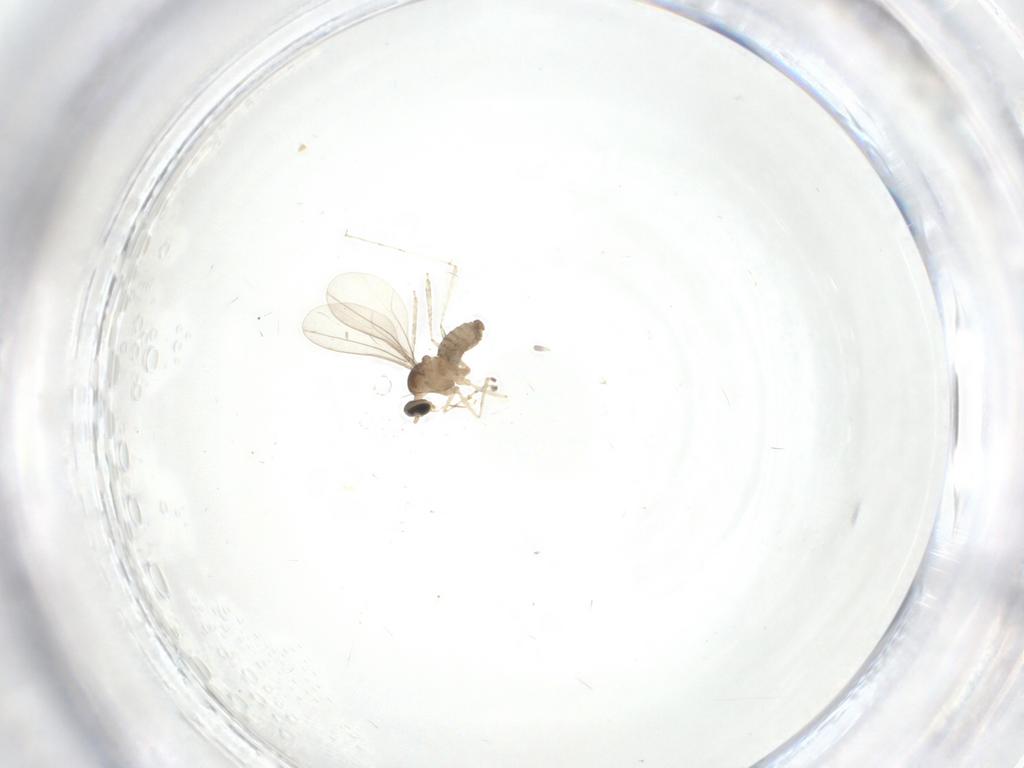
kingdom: Animalia
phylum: Arthropoda
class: Insecta
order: Diptera
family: Cecidomyiidae
